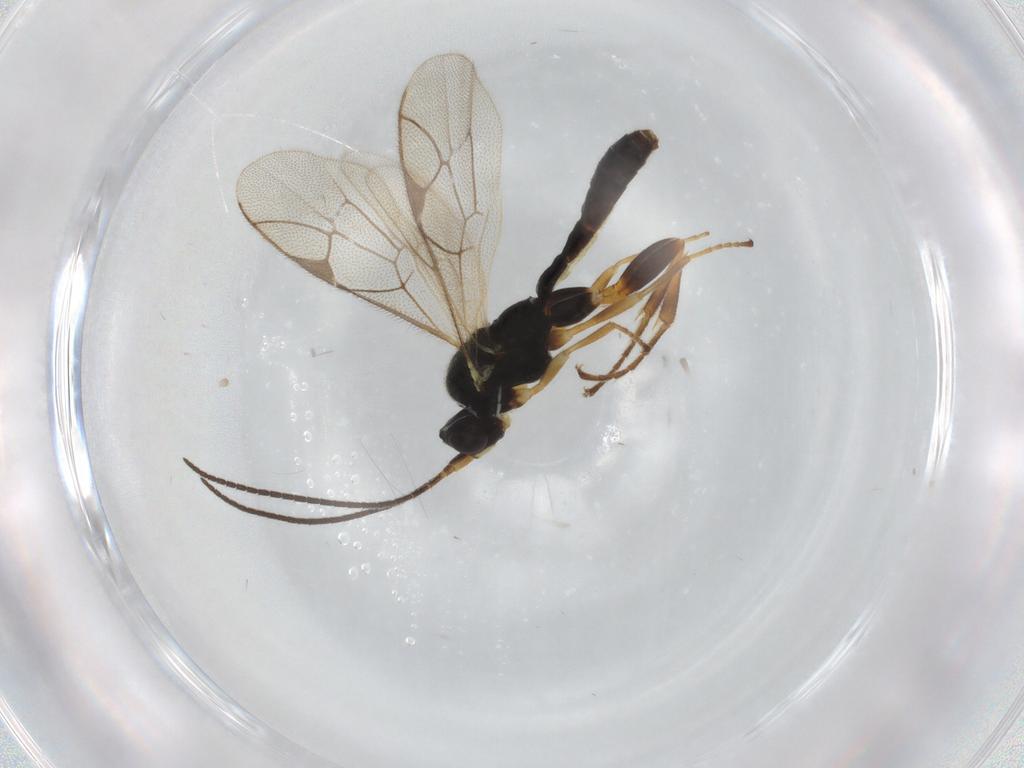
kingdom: Animalia
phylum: Arthropoda
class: Insecta
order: Hymenoptera
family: Ichneumonidae
